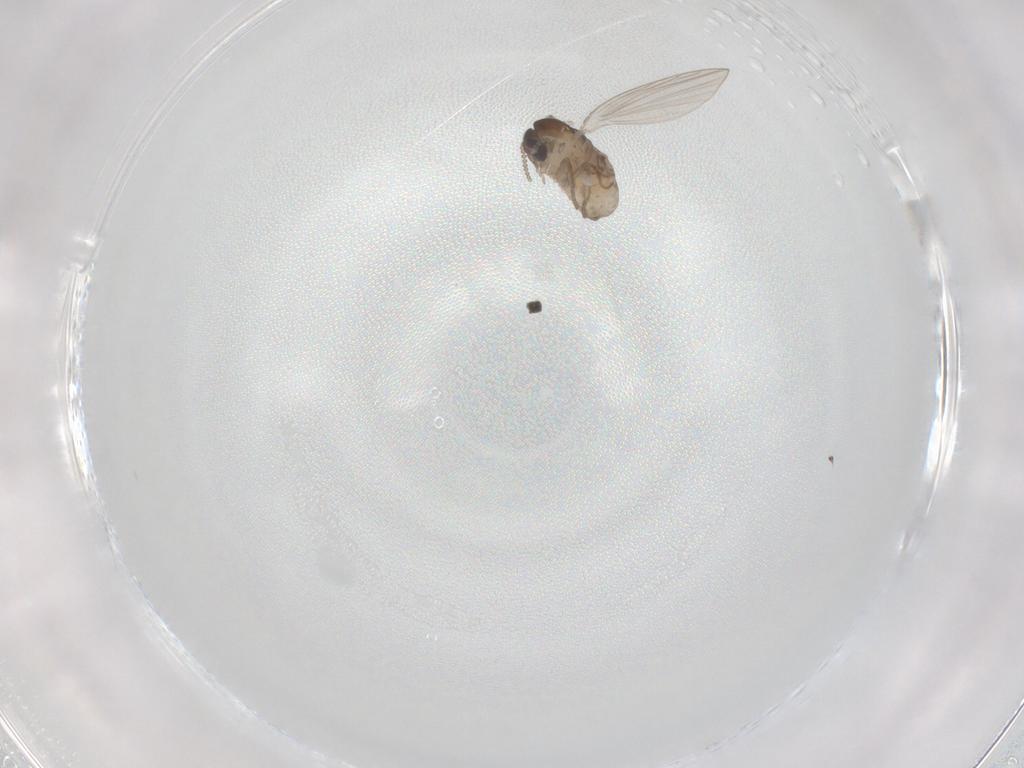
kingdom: Animalia
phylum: Arthropoda
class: Insecta
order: Diptera
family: Psychodidae
